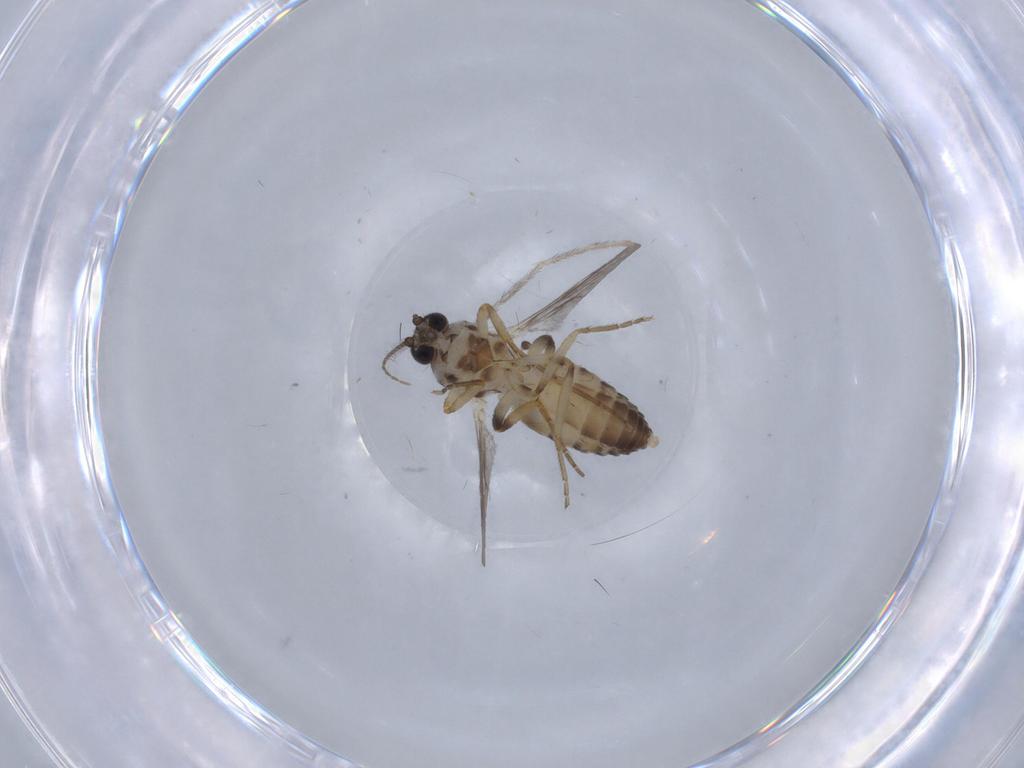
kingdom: Animalia
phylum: Arthropoda
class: Insecta
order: Diptera
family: Ceratopogonidae
